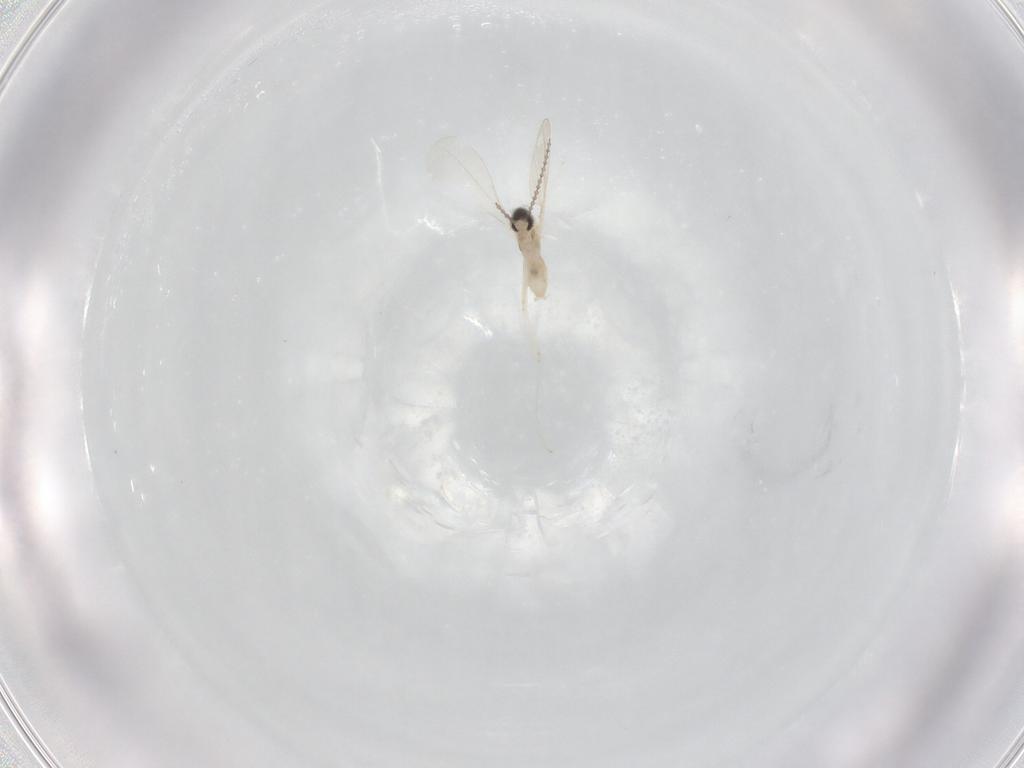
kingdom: Animalia
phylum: Arthropoda
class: Insecta
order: Diptera
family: Cecidomyiidae
